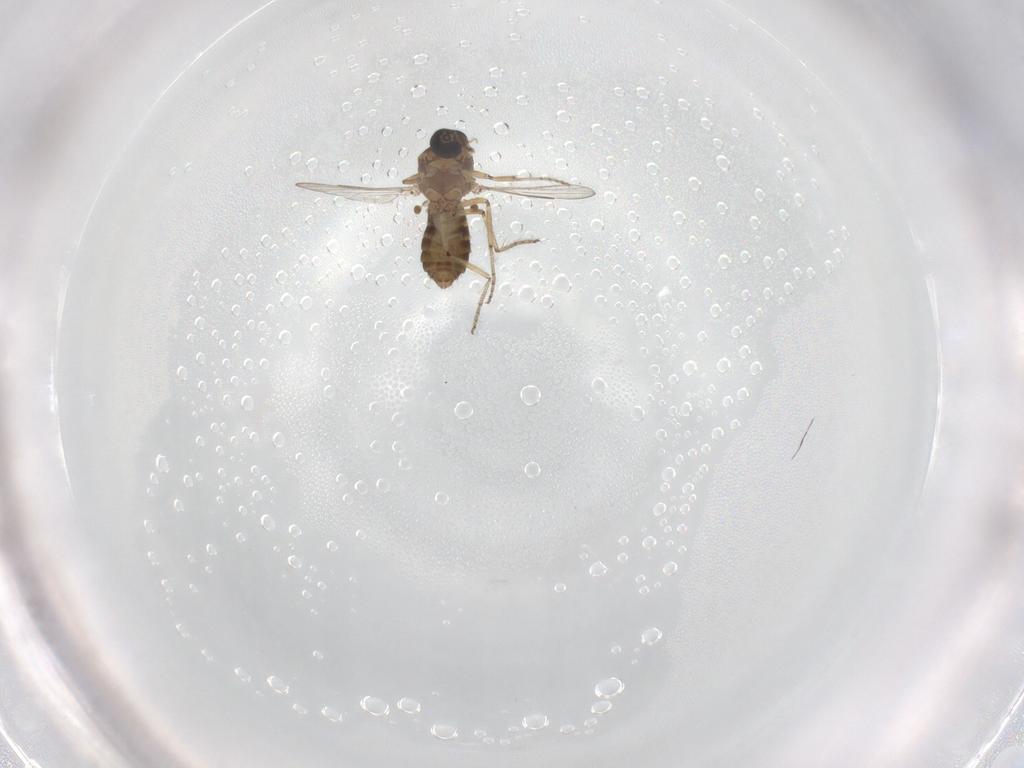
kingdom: Animalia
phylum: Arthropoda
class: Insecta
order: Diptera
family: Ceratopogonidae
